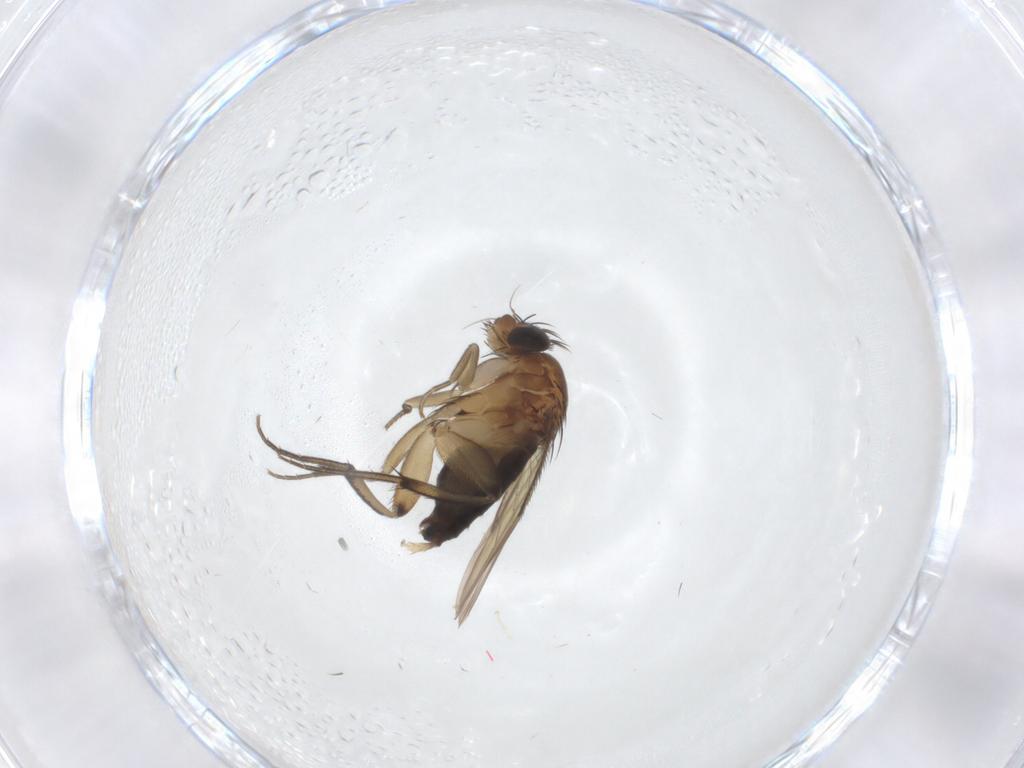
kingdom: Animalia
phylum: Arthropoda
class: Insecta
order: Diptera
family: Phoridae
